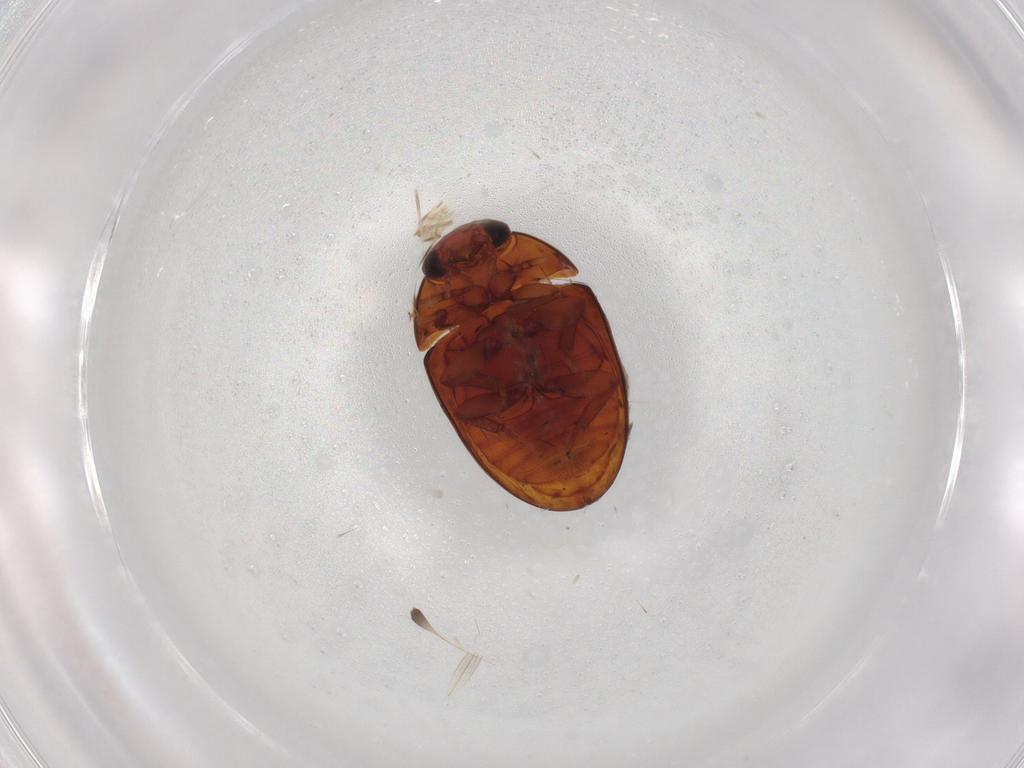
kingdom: Animalia
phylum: Arthropoda
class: Insecta
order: Coleoptera
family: Phalacridae
